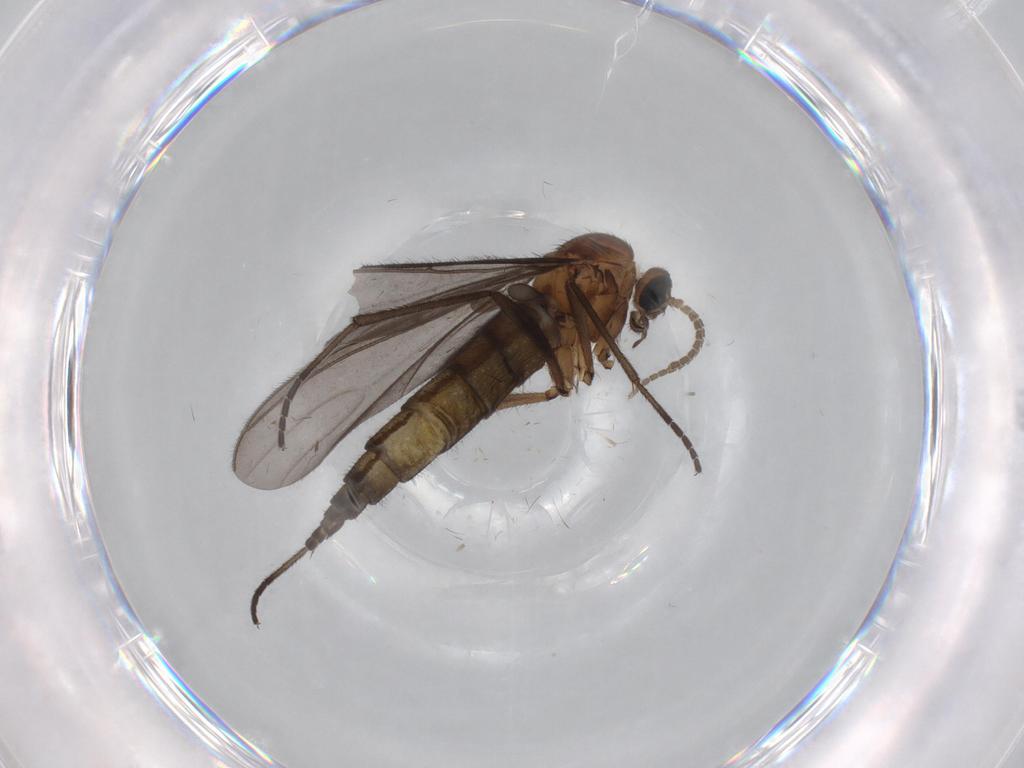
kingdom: Animalia
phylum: Arthropoda
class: Insecta
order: Diptera
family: Sciaridae
